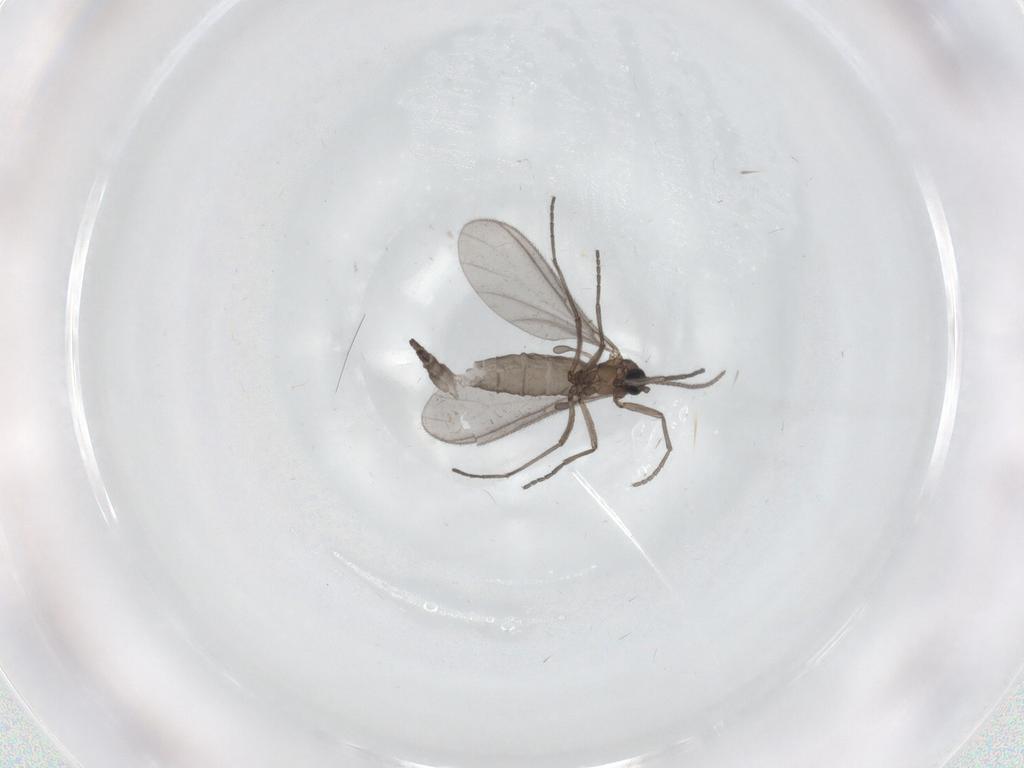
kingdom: Animalia
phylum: Arthropoda
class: Insecta
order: Diptera
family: Sciaridae
